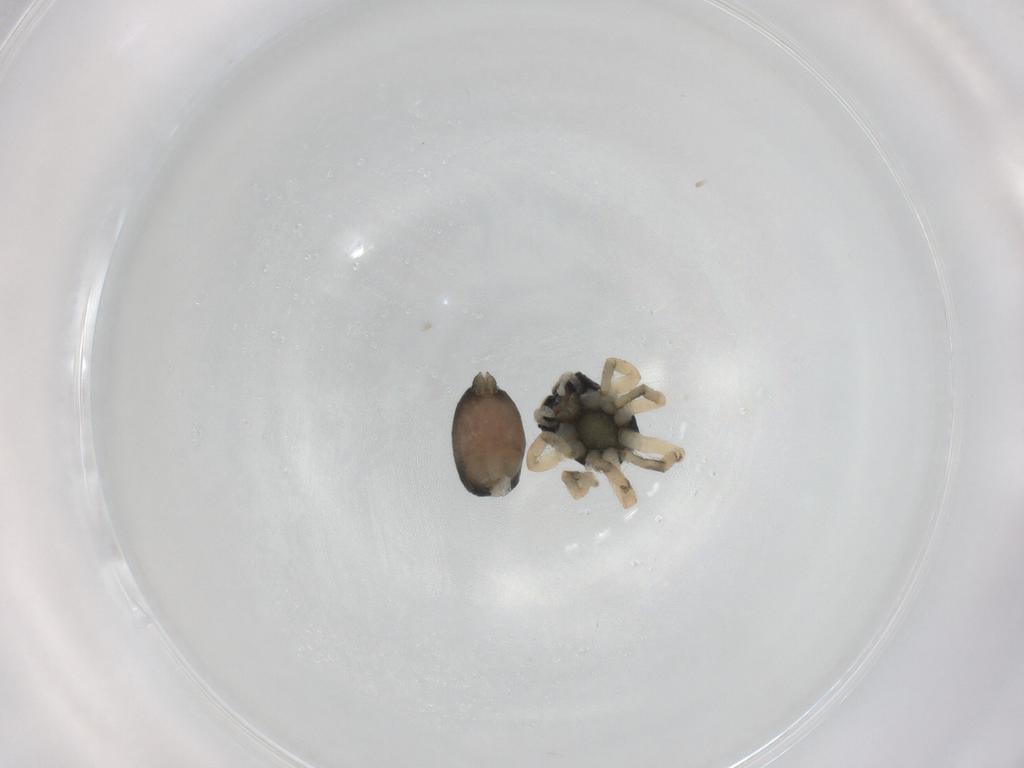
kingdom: Animalia
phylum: Arthropoda
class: Arachnida
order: Araneae
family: Salticidae
